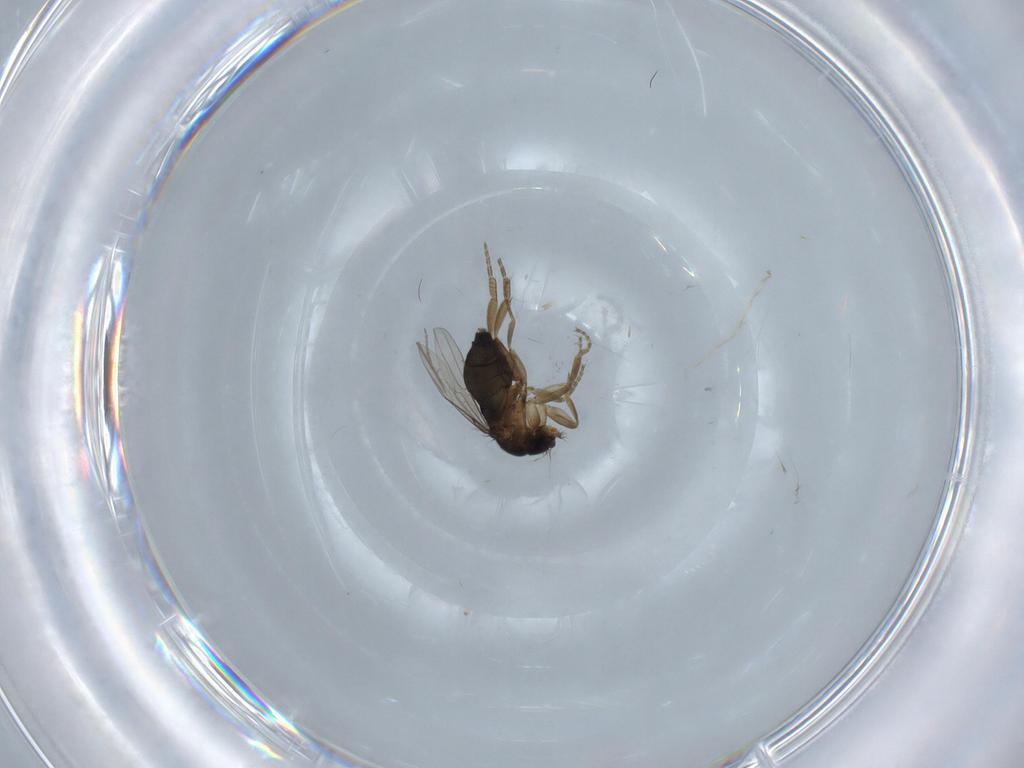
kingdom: Animalia
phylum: Arthropoda
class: Insecta
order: Diptera
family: Phoridae
